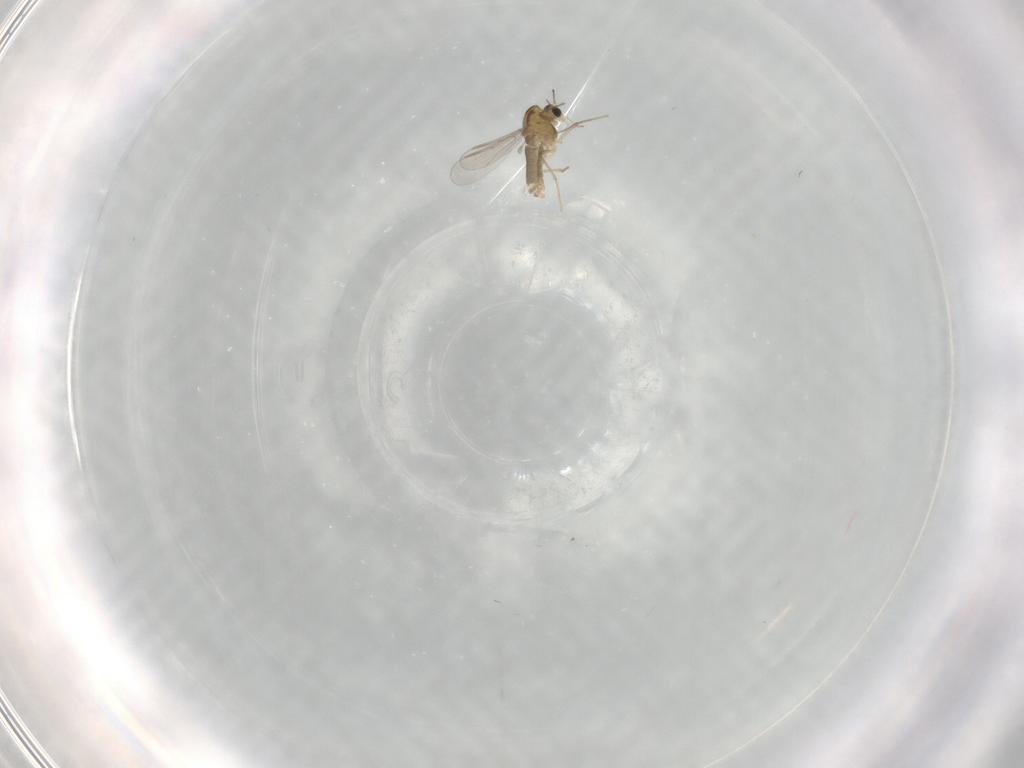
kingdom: Animalia
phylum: Arthropoda
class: Insecta
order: Diptera
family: Chironomidae
